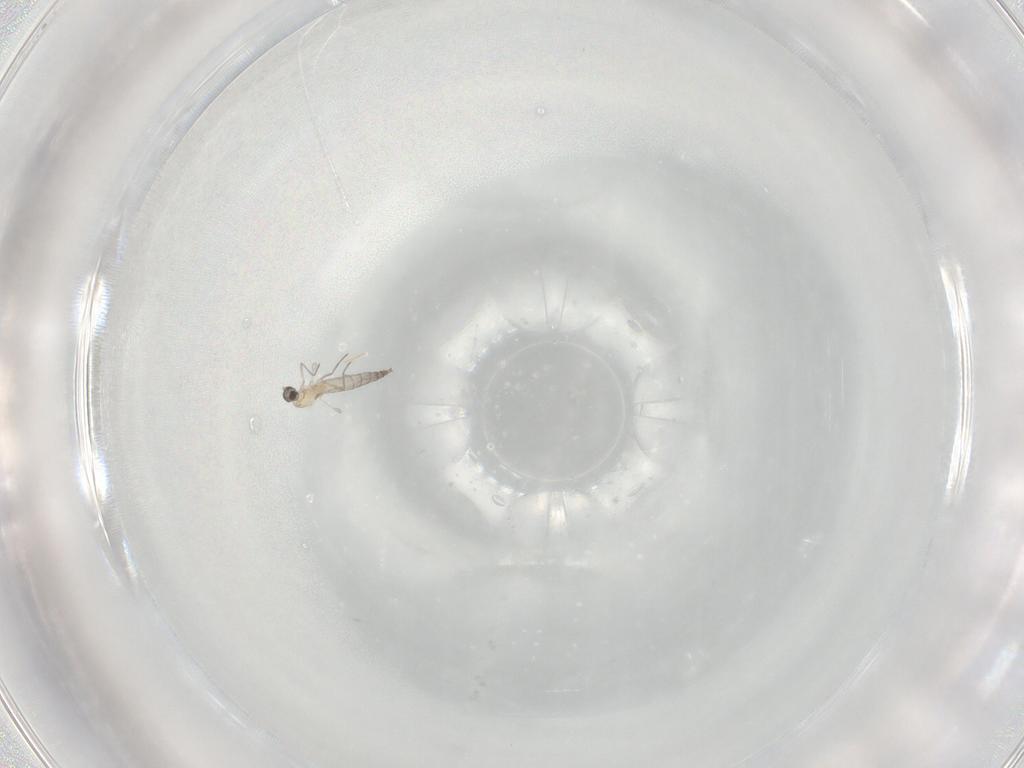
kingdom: Animalia
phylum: Arthropoda
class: Insecta
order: Diptera
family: Cecidomyiidae
